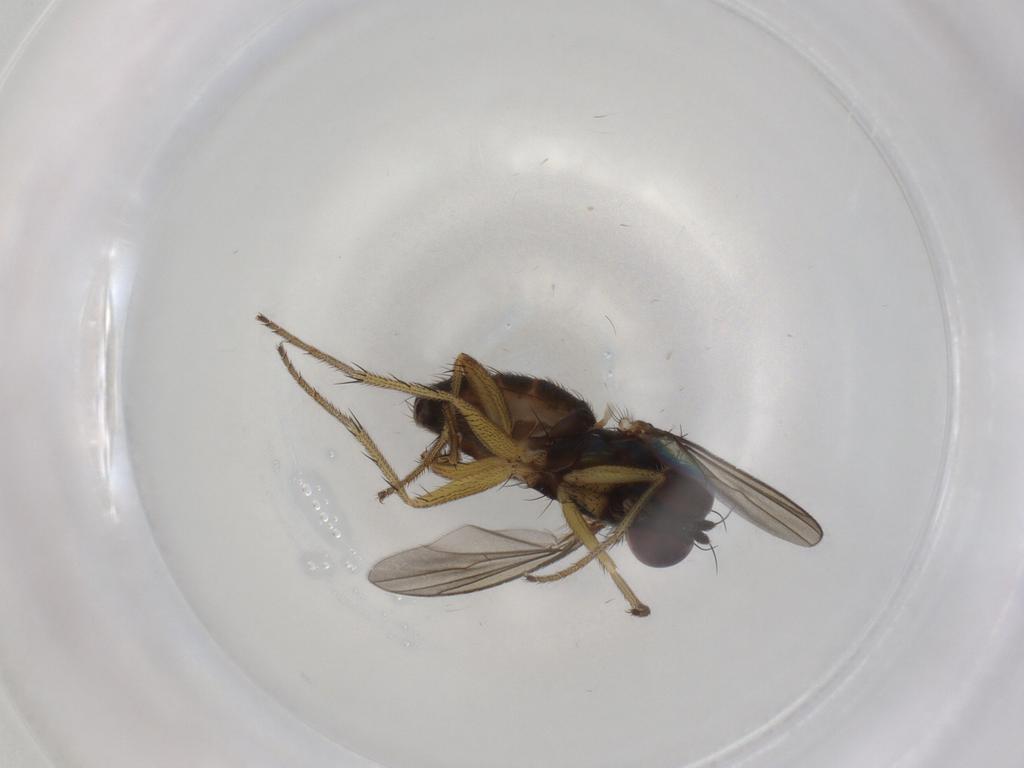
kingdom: Animalia
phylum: Arthropoda
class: Insecta
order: Diptera
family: Dolichopodidae
